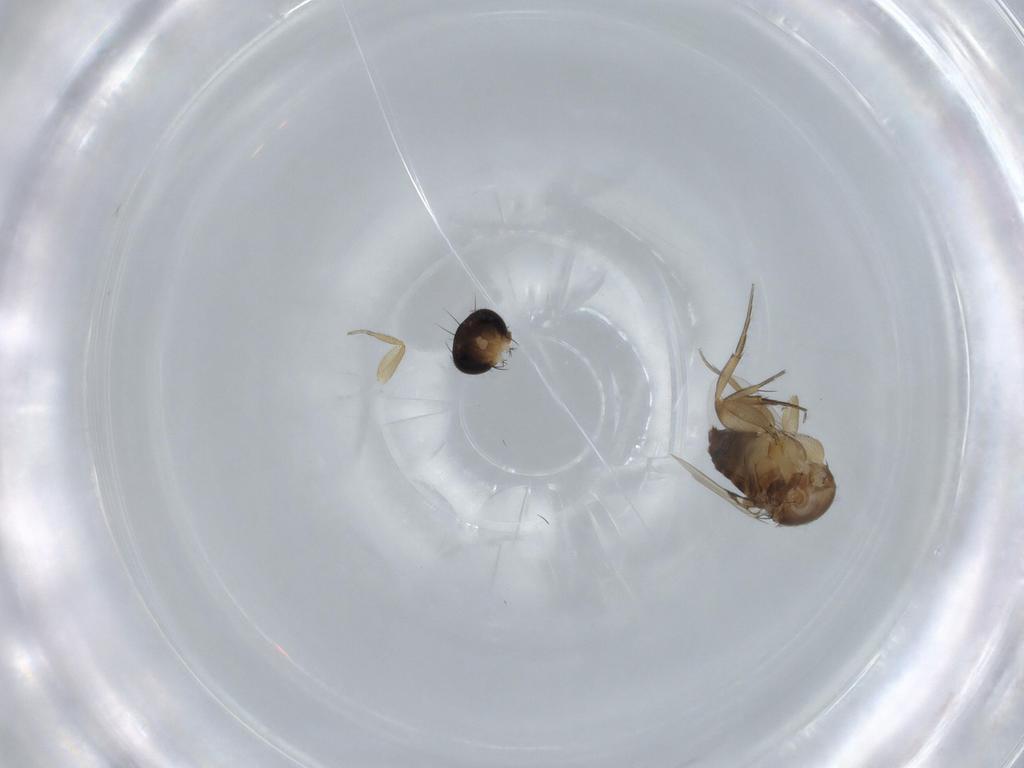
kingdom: Animalia
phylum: Arthropoda
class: Insecta
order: Diptera
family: Phoridae
